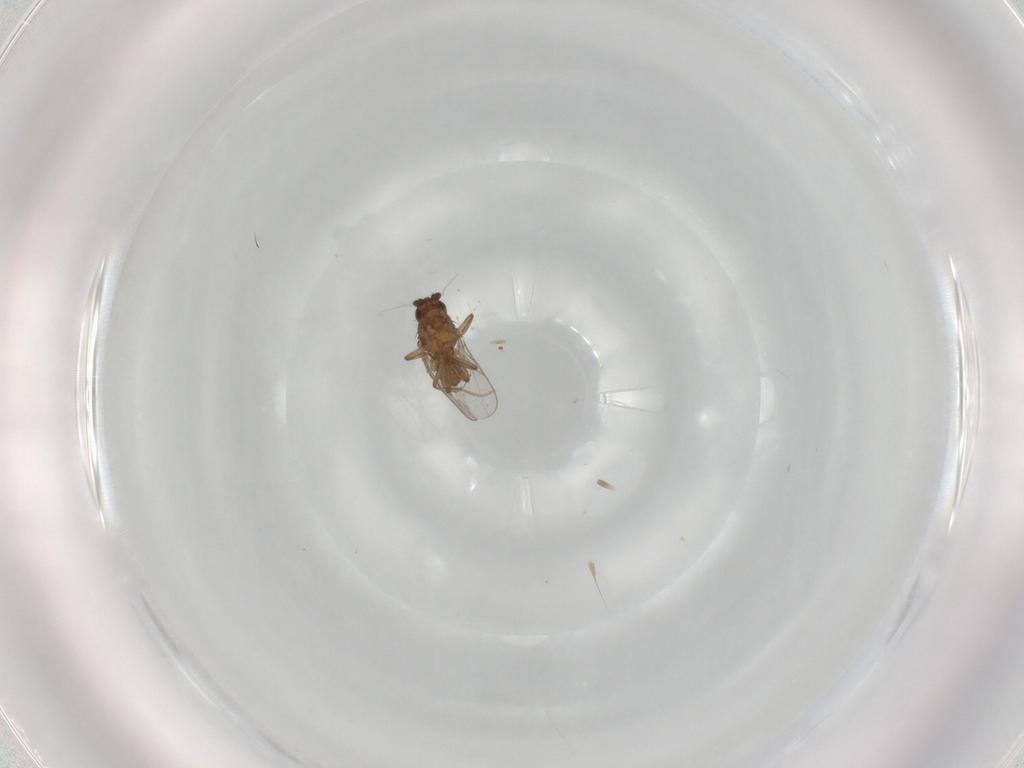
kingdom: Animalia
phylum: Arthropoda
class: Insecta
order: Diptera
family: Sphaeroceridae
